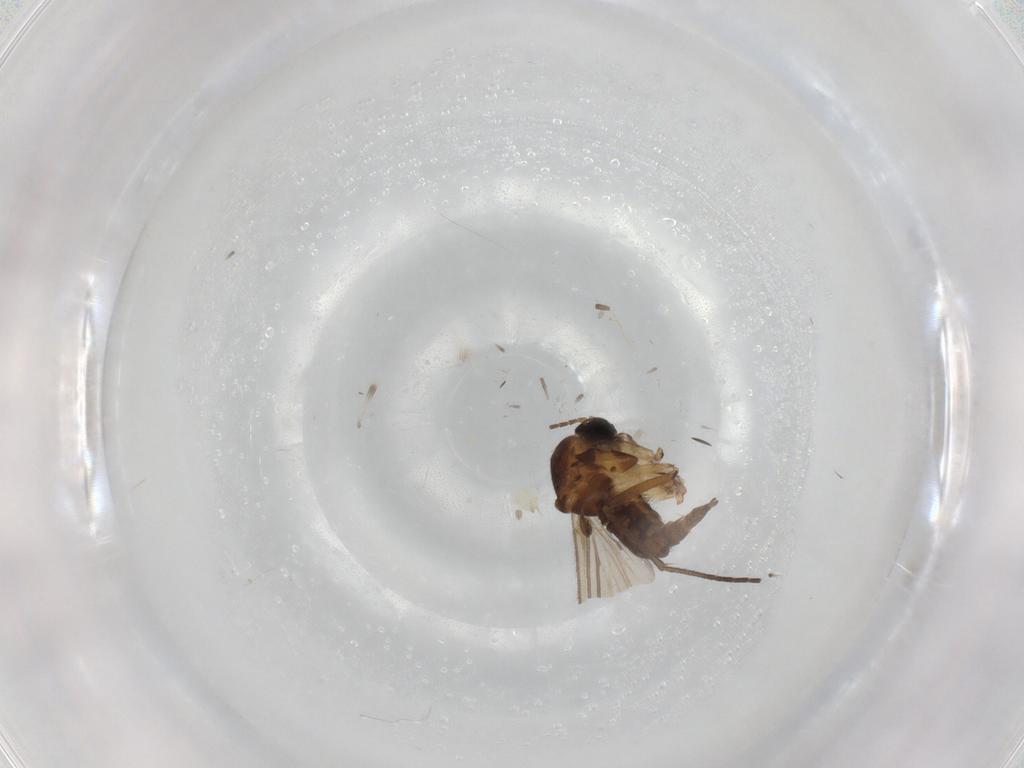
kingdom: Animalia
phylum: Arthropoda
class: Insecta
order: Diptera
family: Sciaridae
